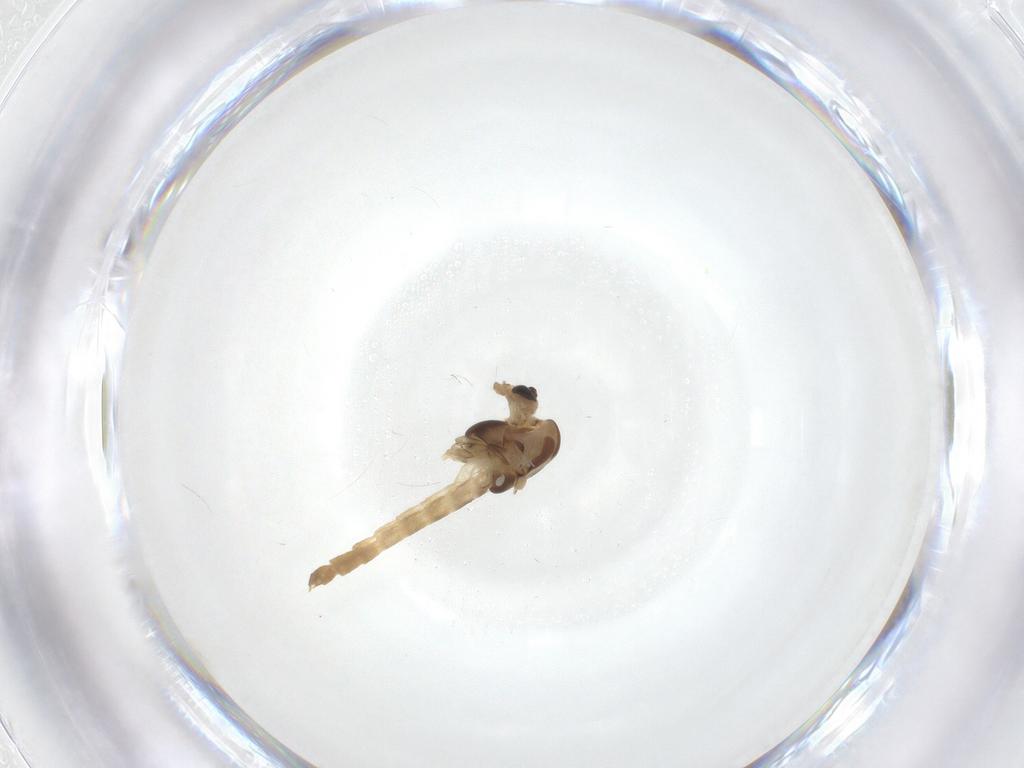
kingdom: Animalia
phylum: Arthropoda
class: Insecta
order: Diptera
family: Chironomidae
